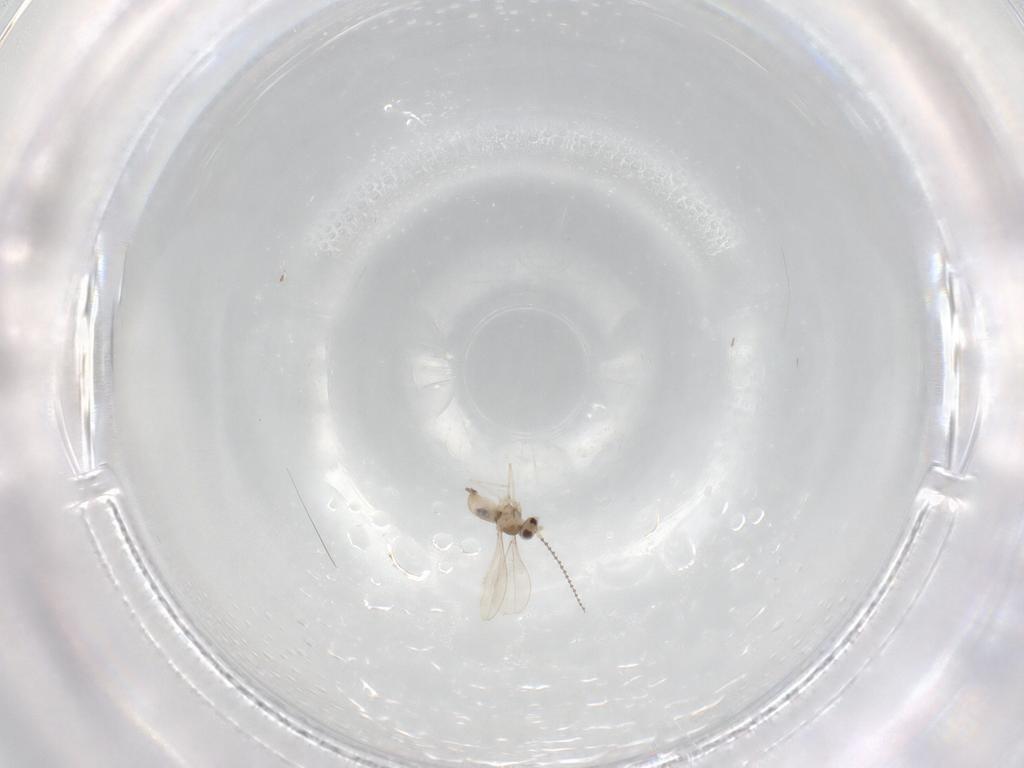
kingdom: Animalia
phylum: Arthropoda
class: Insecta
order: Diptera
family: Cecidomyiidae
